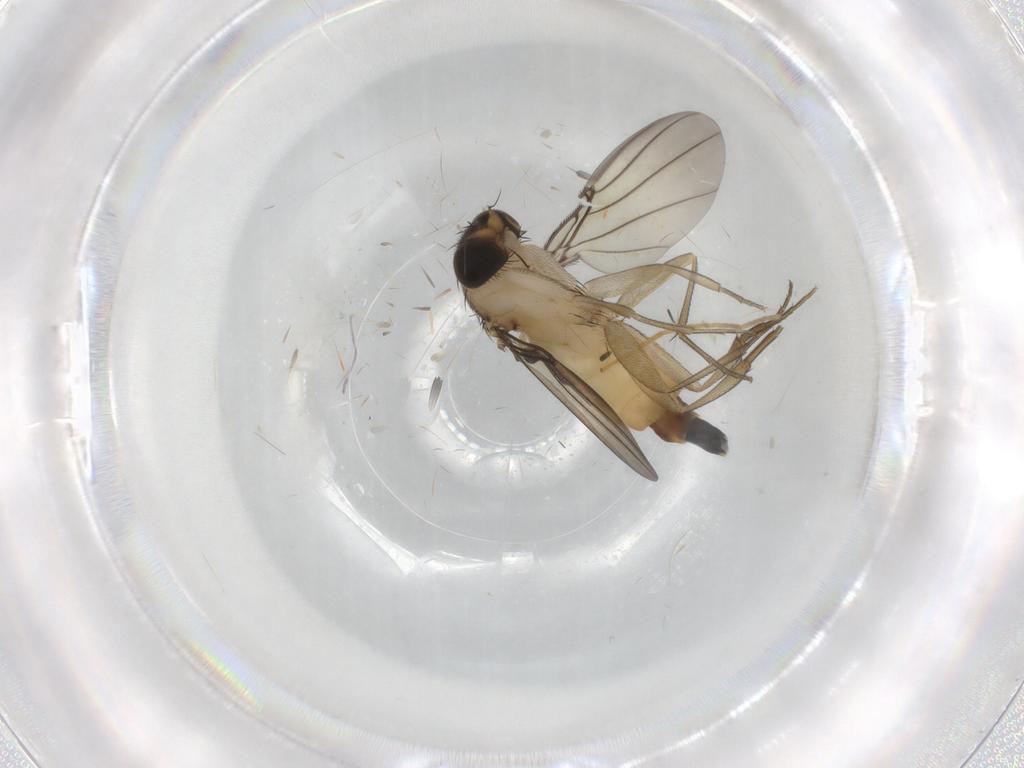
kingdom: Animalia
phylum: Arthropoda
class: Insecta
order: Diptera
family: Phoridae
